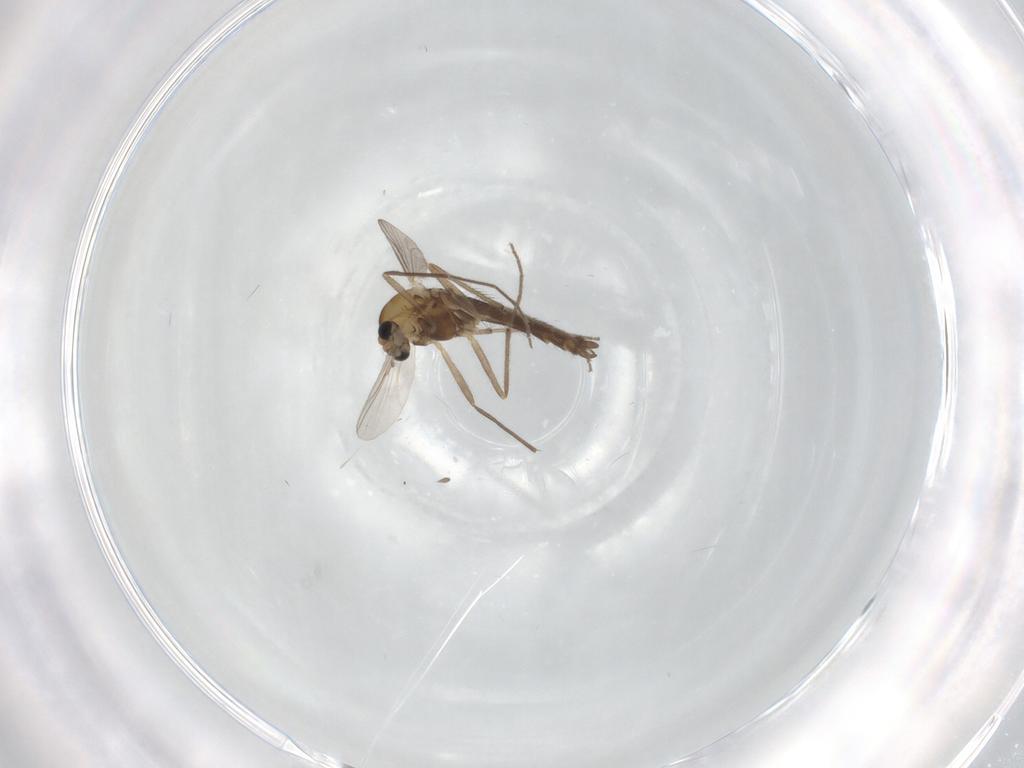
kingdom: Animalia
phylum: Arthropoda
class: Insecta
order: Diptera
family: Chironomidae
